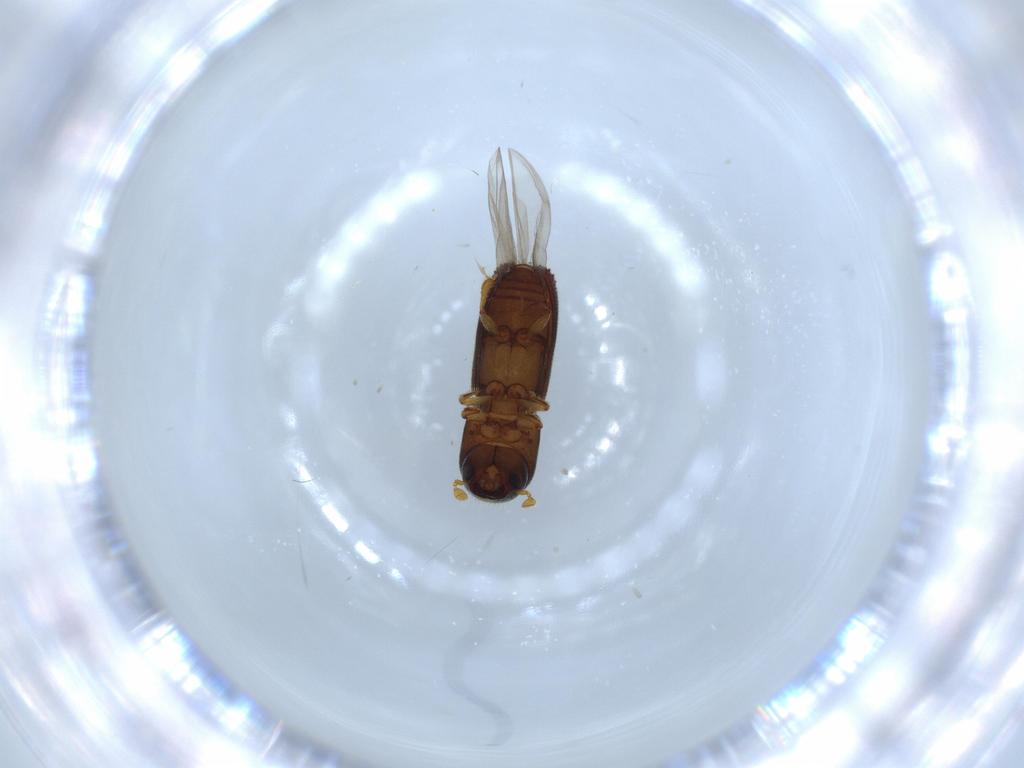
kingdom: Animalia
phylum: Arthropoda
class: Insecta
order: Coleoptera
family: Curculionidae
